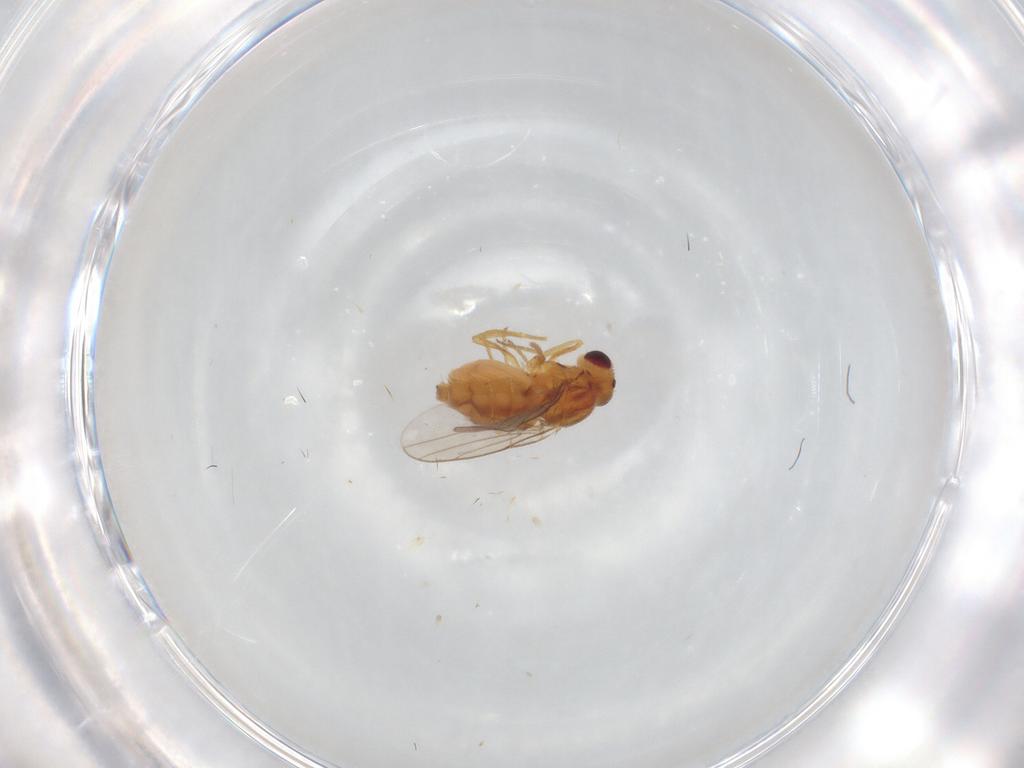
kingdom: Animalia
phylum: Arthropoda
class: Insecta
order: Diptera
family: Chloropidae
